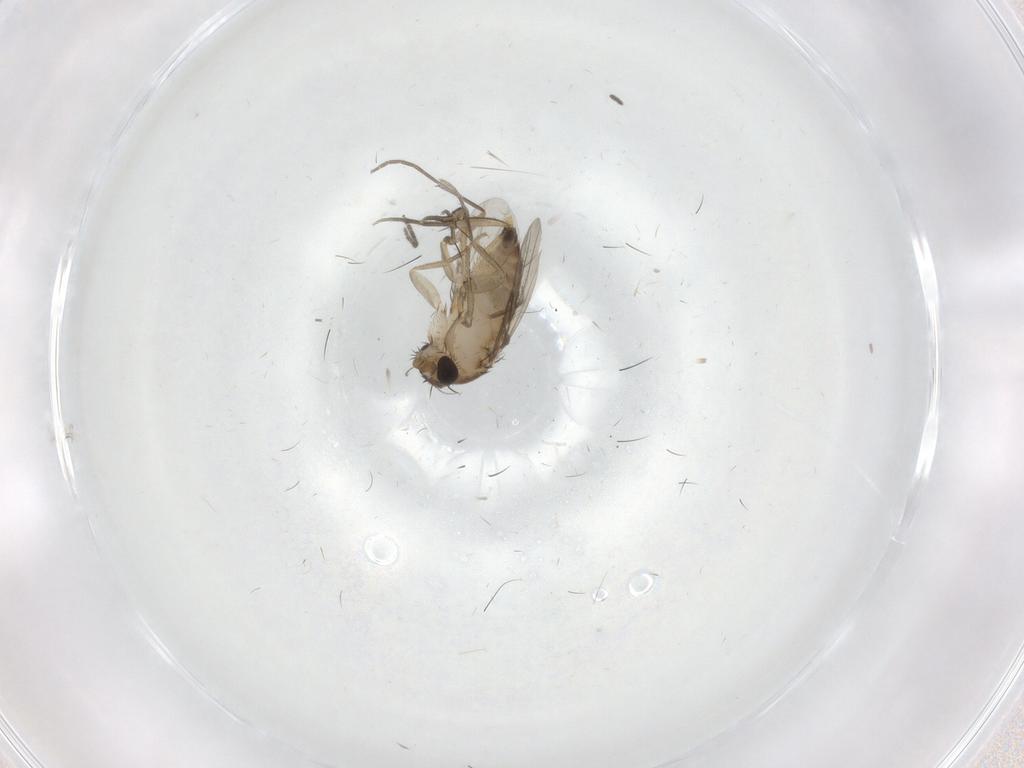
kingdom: Animalia
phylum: Arthropoda
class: Insecta
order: Diptera
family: Ceratopogonidae
